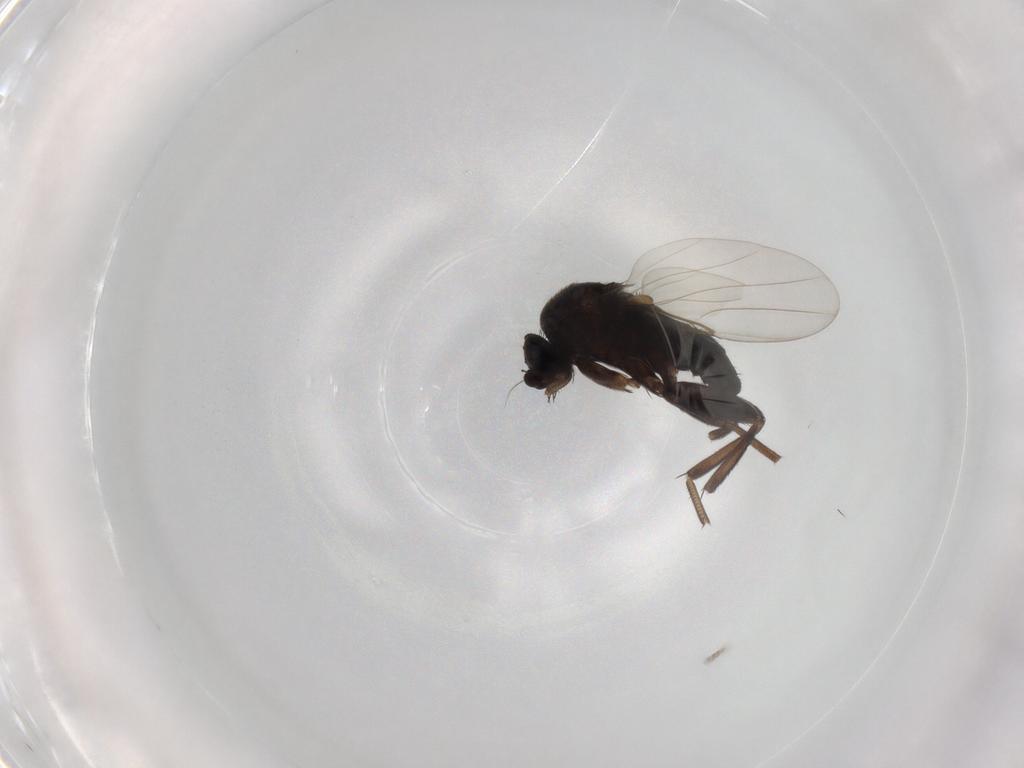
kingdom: Animalia
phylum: Arthropoda
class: Insecta
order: Diptera
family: Phoridae
